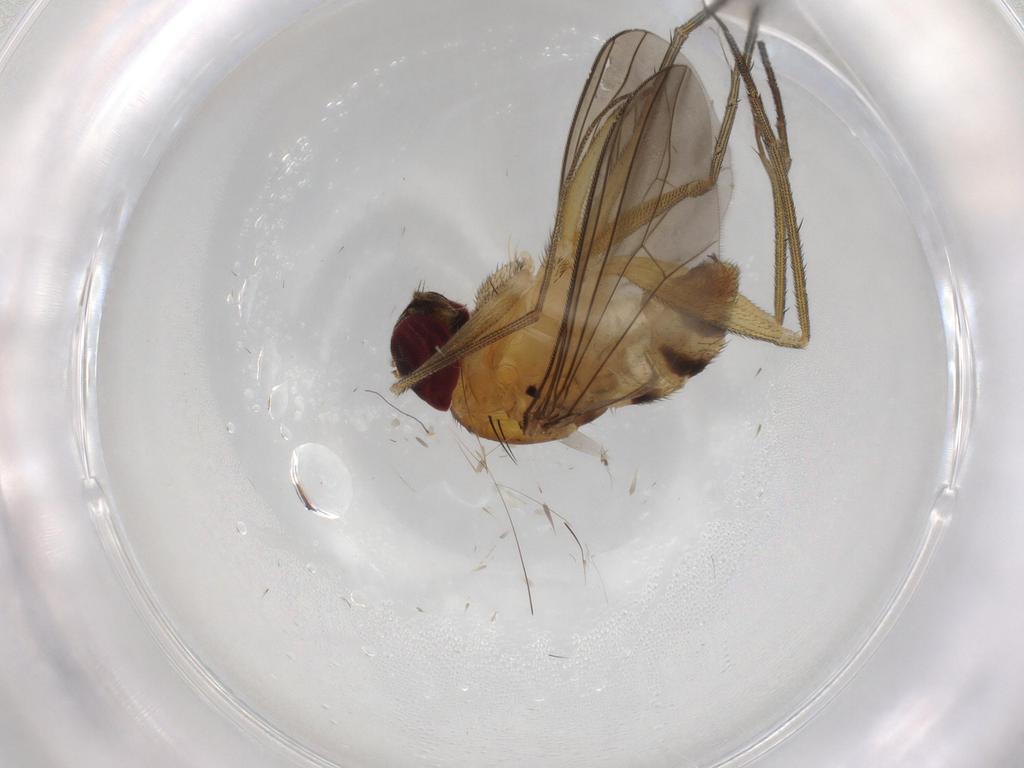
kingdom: Animalia
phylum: Arthropoda
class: Insecta
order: Diptera
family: Dolichopodidae
